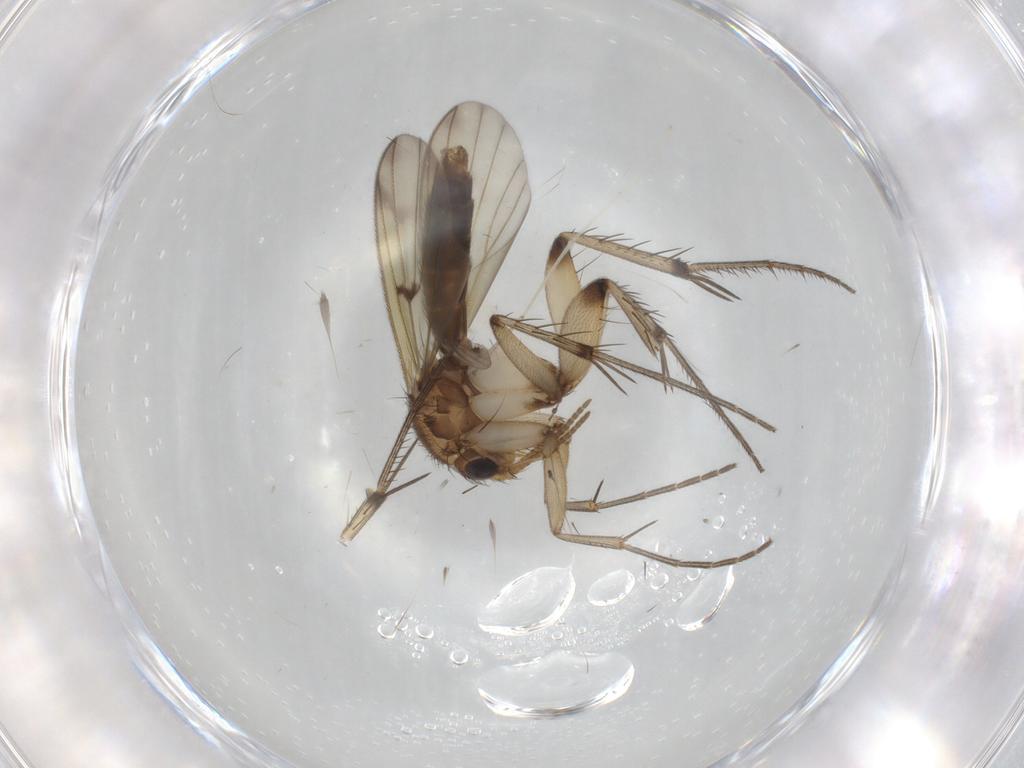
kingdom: Animalia
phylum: Arthropoda
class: Insecta
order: Diptera
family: Mycetophilidae
